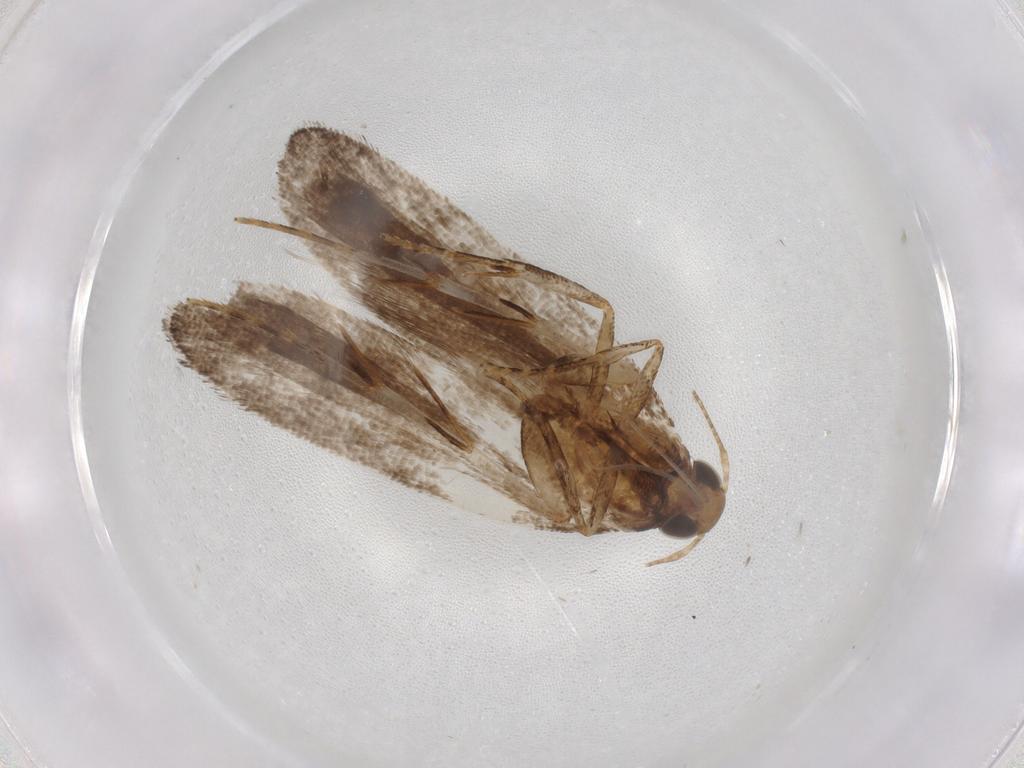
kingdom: Animalia
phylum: Arthropoda
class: Insecta
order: Lepidoptera
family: Gelechiidae
